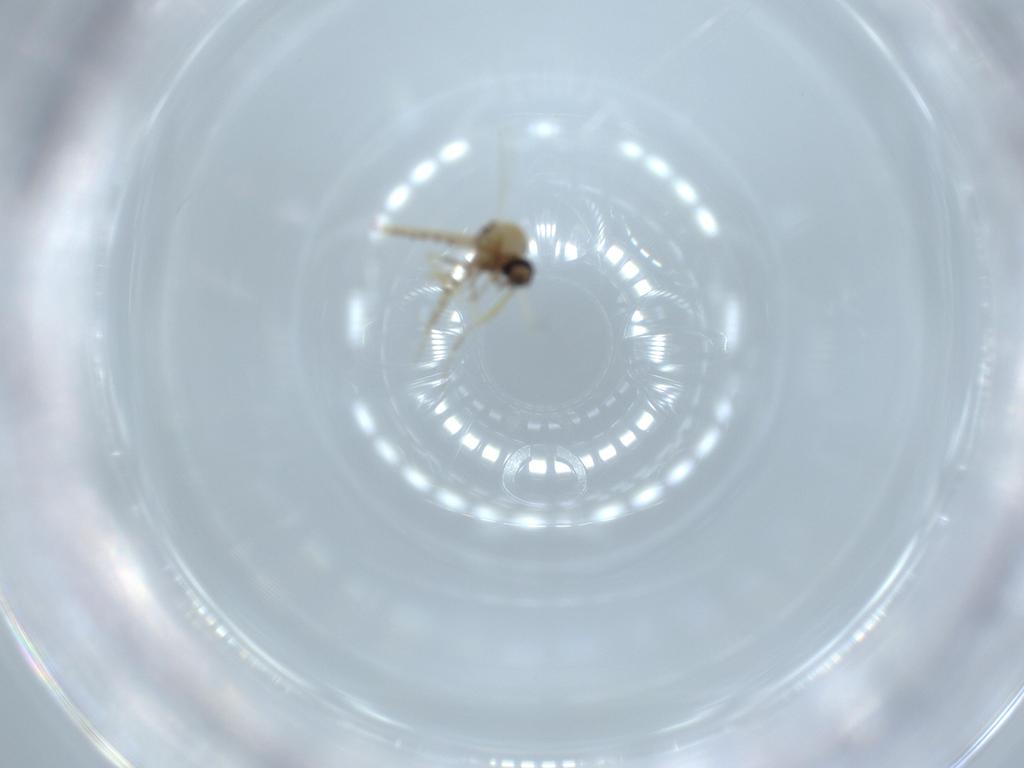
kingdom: Animalia
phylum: Arthropoda
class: Insecta
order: Diptera
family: Ceratopogonidae
